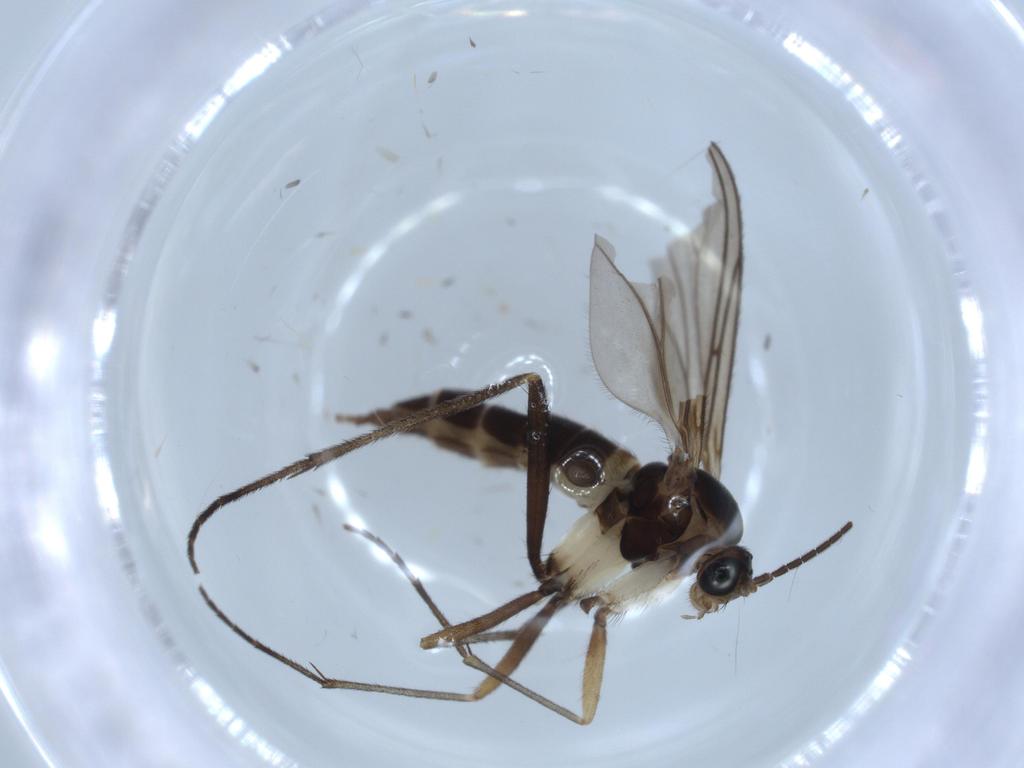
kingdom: Animalia
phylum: Arthropoda
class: Insecta
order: Diptera
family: Sciaridae
